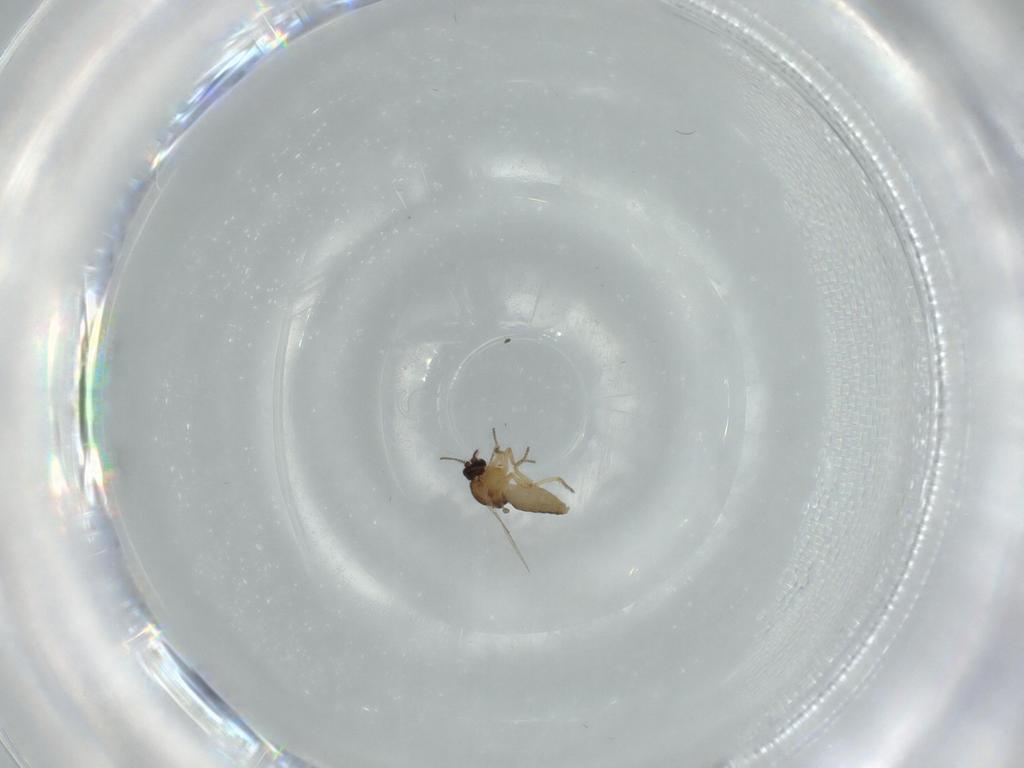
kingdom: Animalia
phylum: Arthropoda
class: Insecta
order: Diptera
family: Ceratopogonidae
